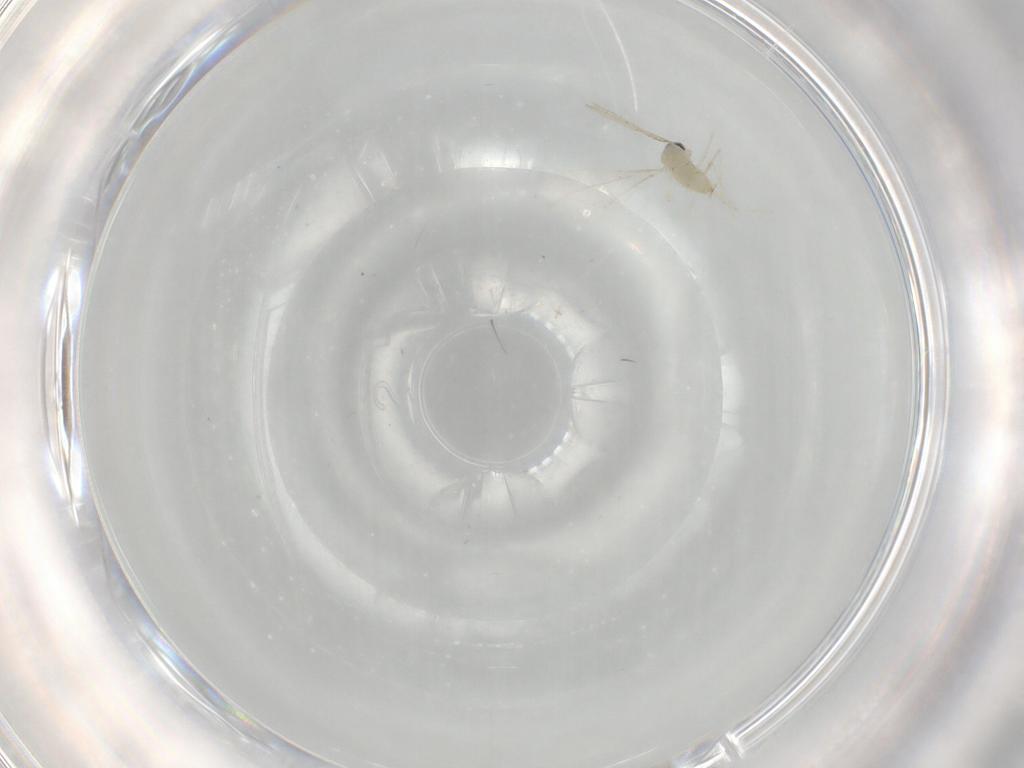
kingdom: Animalia
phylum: Arthropoda
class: Insecta
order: Diptera
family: Cecidomyiidae
